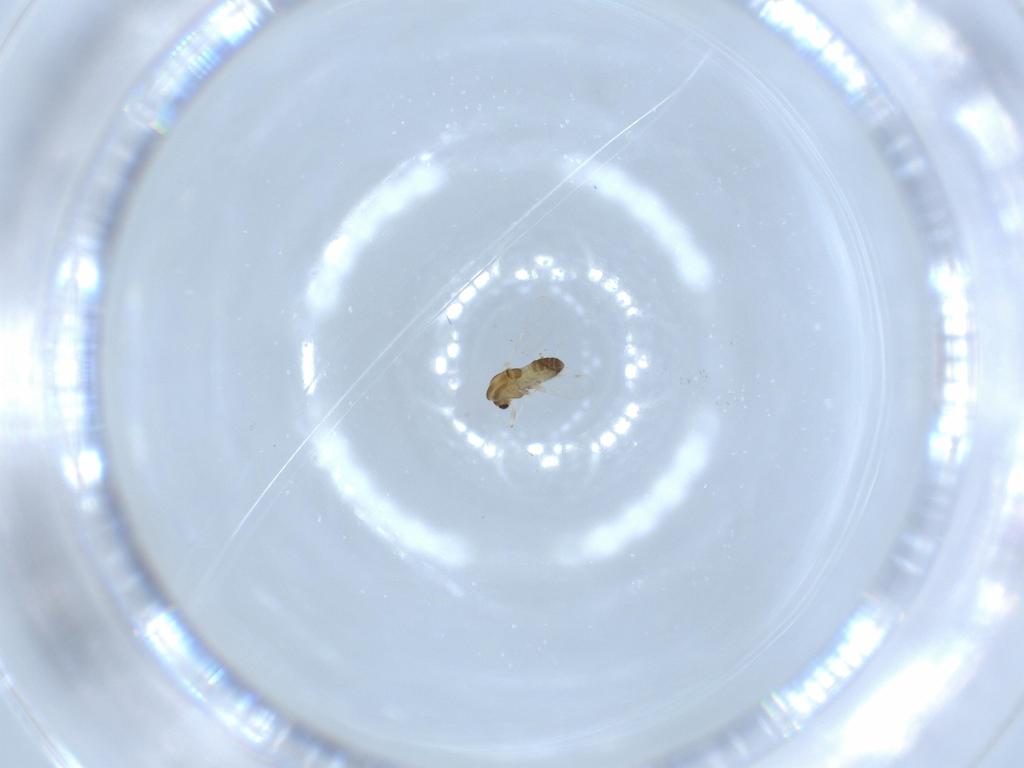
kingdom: Animalia
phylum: Arthropoda
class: Insecta
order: Diptera
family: Chironomidae
